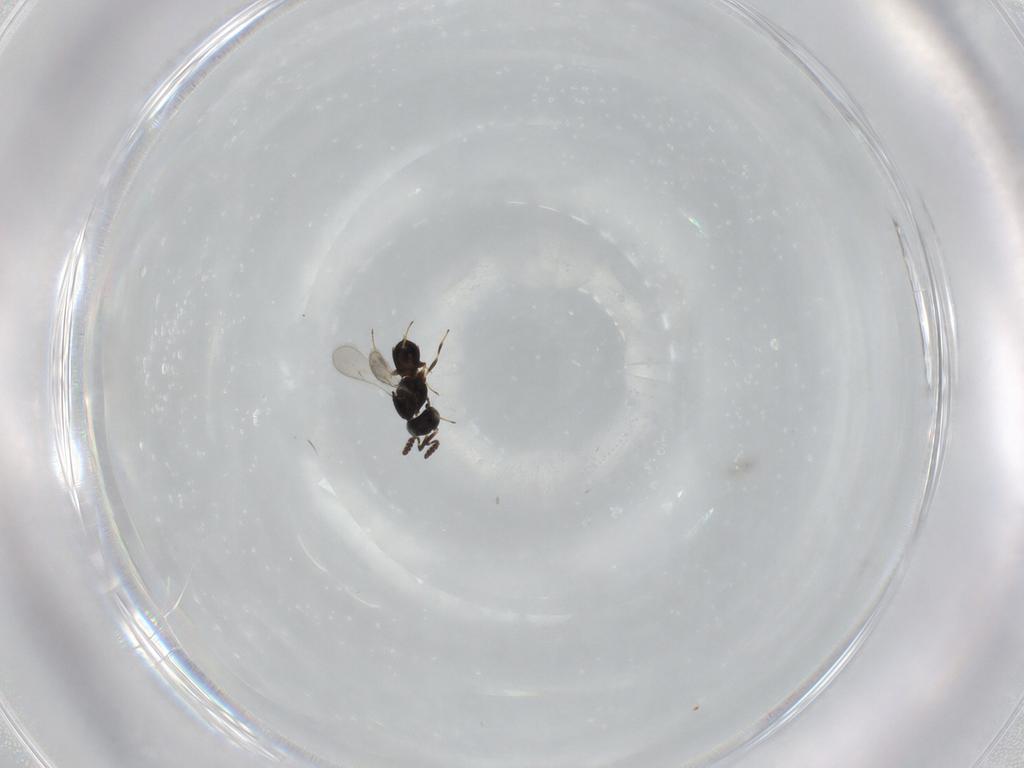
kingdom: Animalia
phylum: Arthropoda
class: Insecta
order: Hymenoptera
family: Scelionidae
